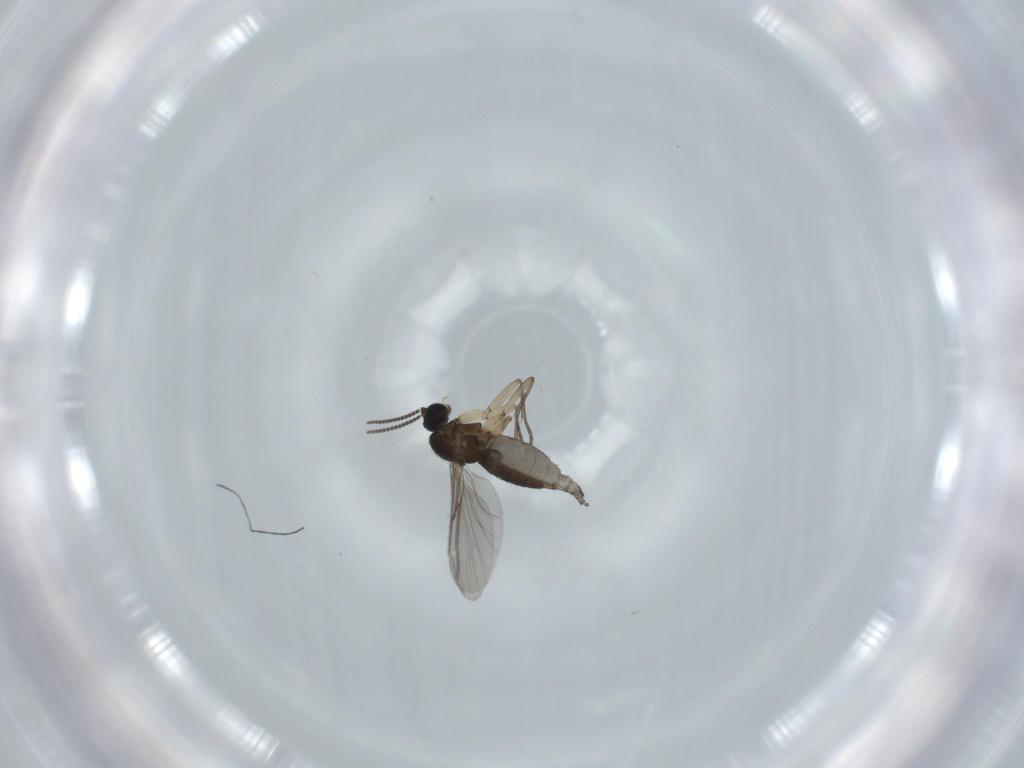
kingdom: Animalia
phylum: Arthropoda
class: Insecta
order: Diptera
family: Sciaridae
